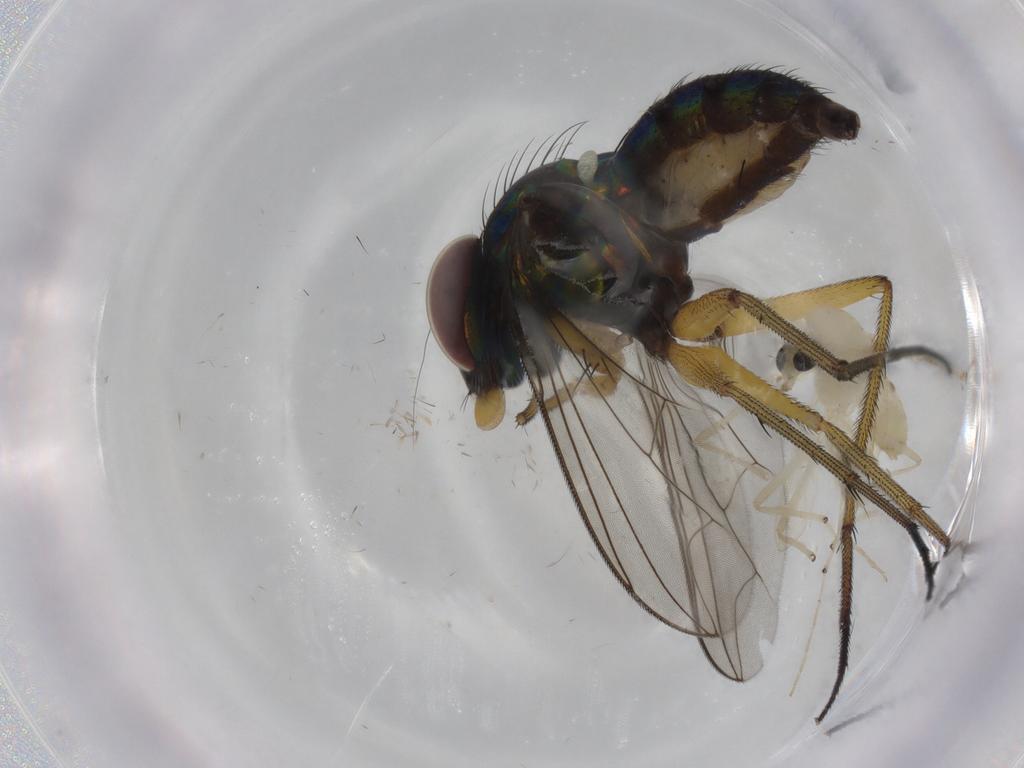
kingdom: Animalia
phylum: Arthropoda
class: Insecta
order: Diptera
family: Dolichopodidae
